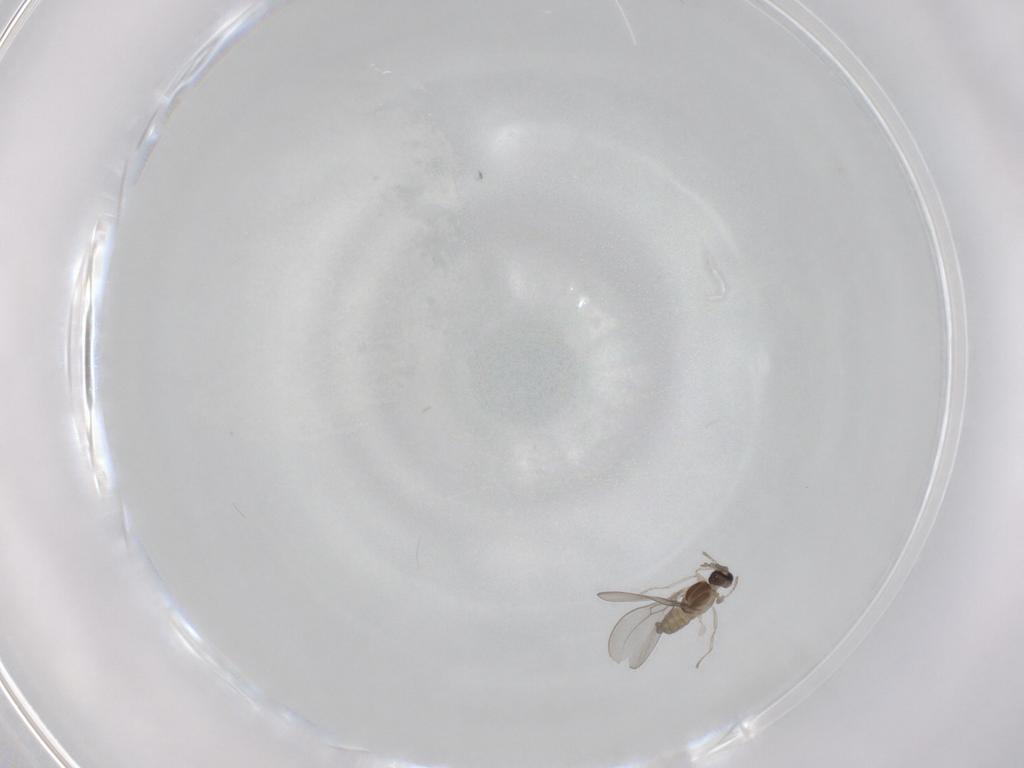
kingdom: Animalia
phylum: Arthropoda
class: Insecta
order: Diptera
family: Cecidomyiidae
